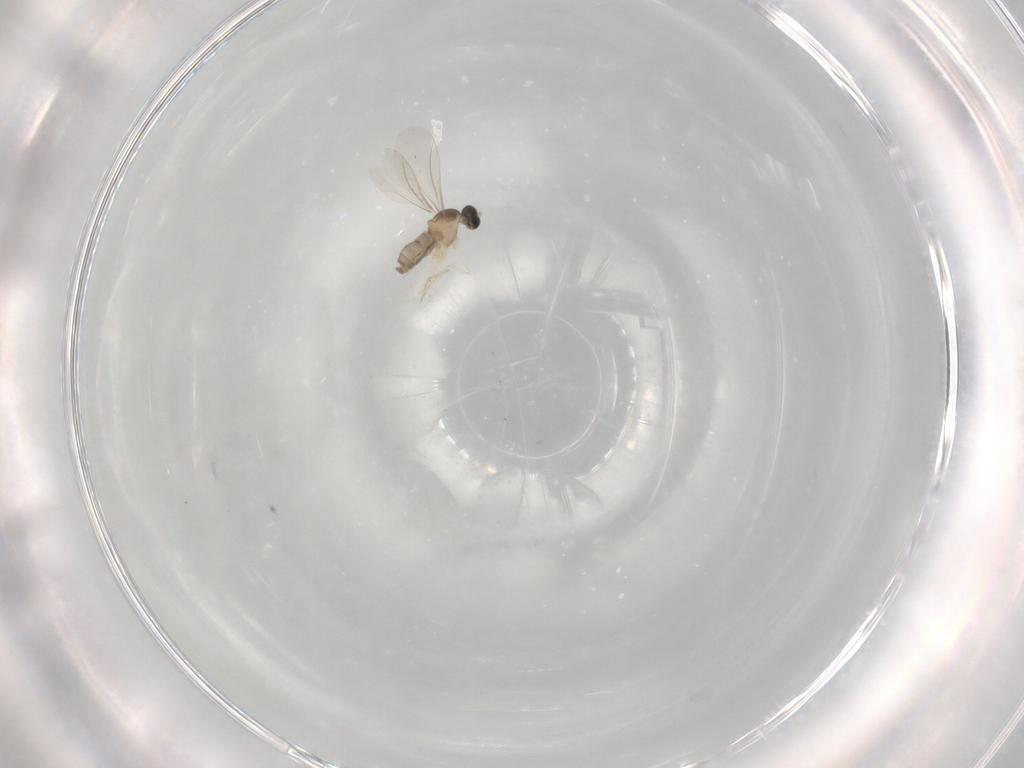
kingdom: Animalia
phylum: Arthropoda
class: Insecta
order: Diptera
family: Cecidomyiidae
